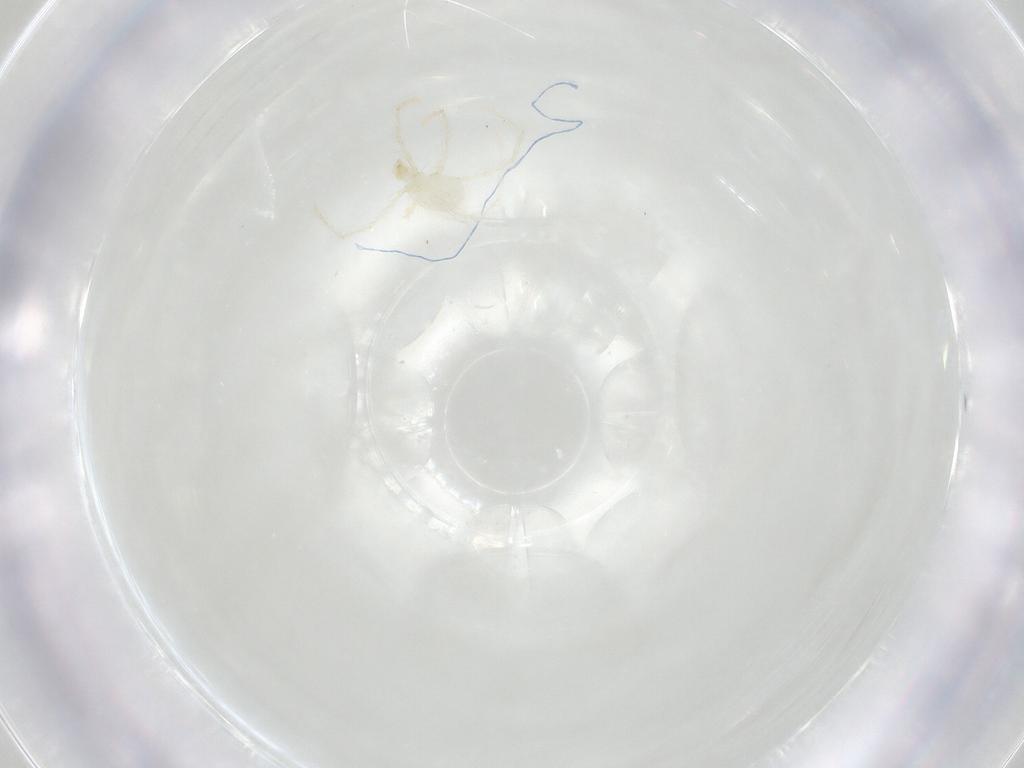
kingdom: Animalia
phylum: Arthropoda
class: Arachnida
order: Trombidiformes
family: Erythraeidae
